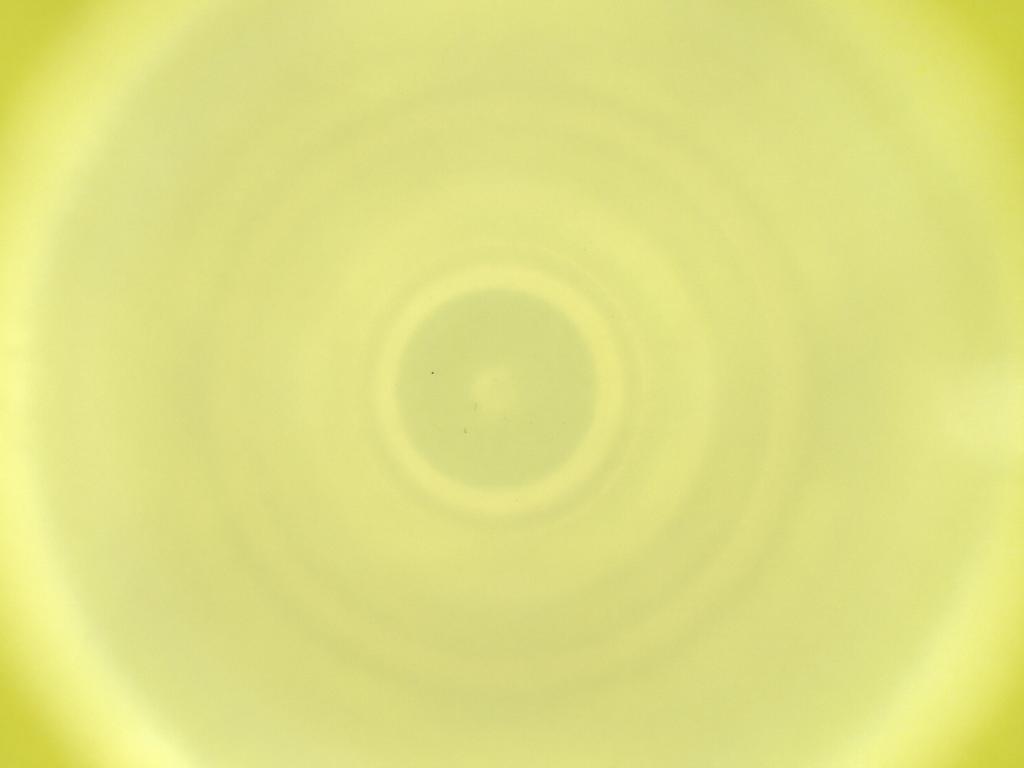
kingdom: Animalia
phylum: Arthropoda
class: Insecta
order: Diptera
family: Cecidomyiidae
